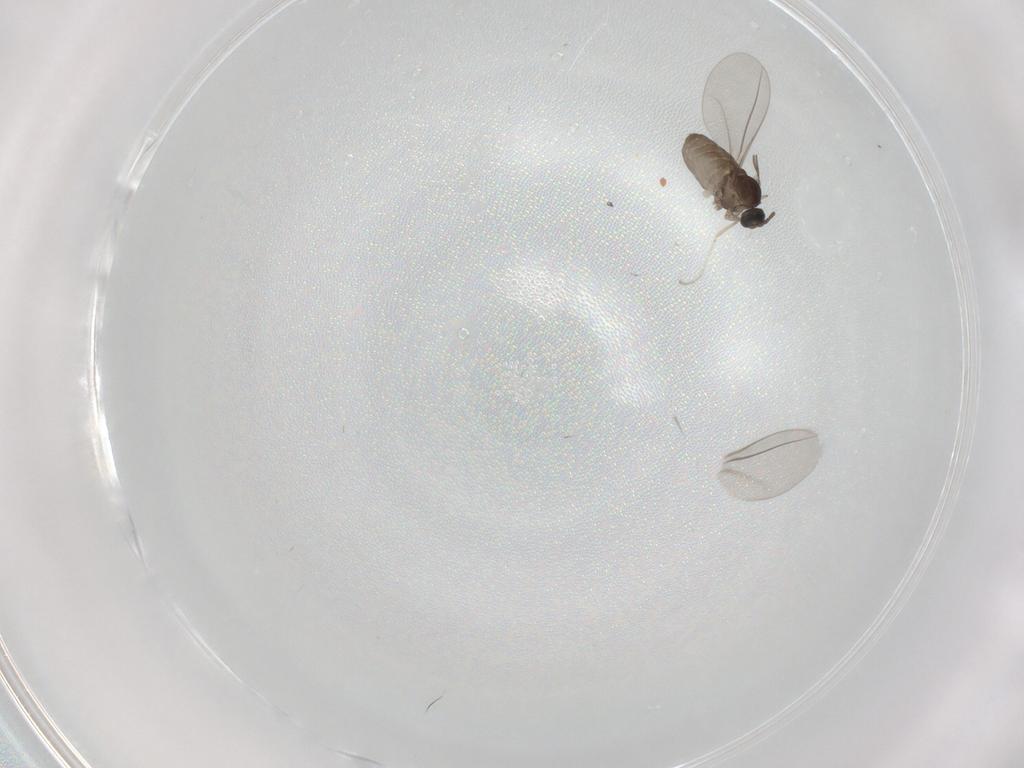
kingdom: Animalia
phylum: Arthropoda
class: Insecta
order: Diptera
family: Cecidomyiidae
